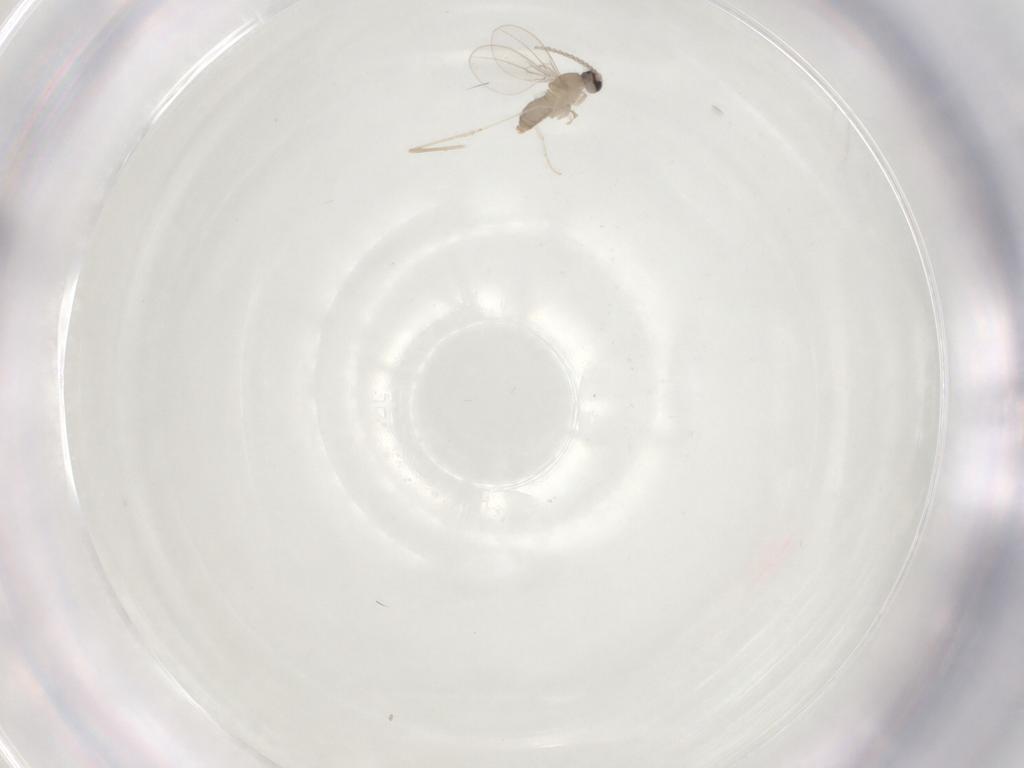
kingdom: Animalia
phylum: Arthropoda
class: Insecta
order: Diptera
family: Cecidomyiidae
